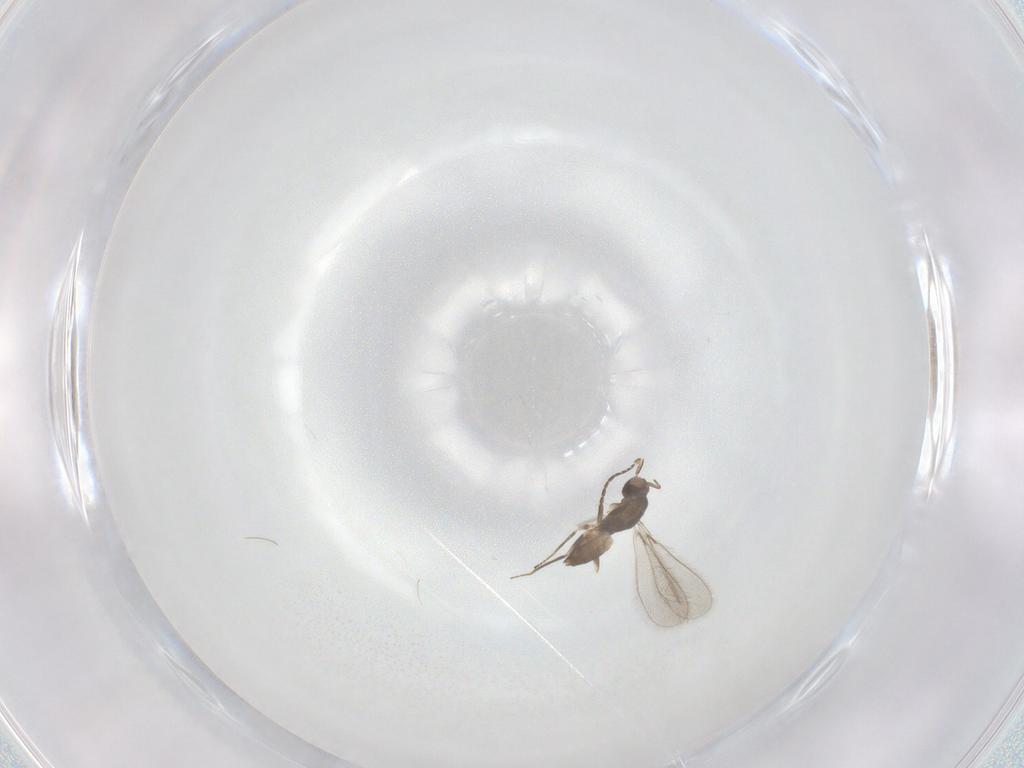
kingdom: Animalia
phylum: Arthropoda
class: Insecta
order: Hymenoptera
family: Mymaridae
